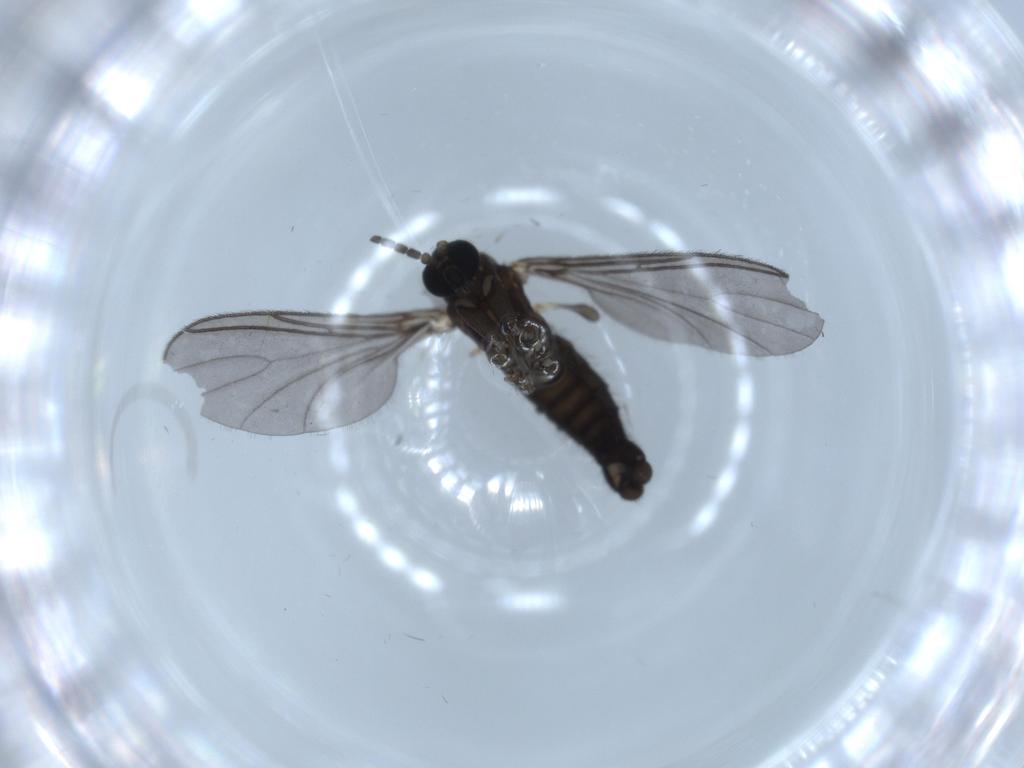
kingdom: Animalia
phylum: Arthropoda
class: Insecta
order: Diptera
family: Sciaridae
